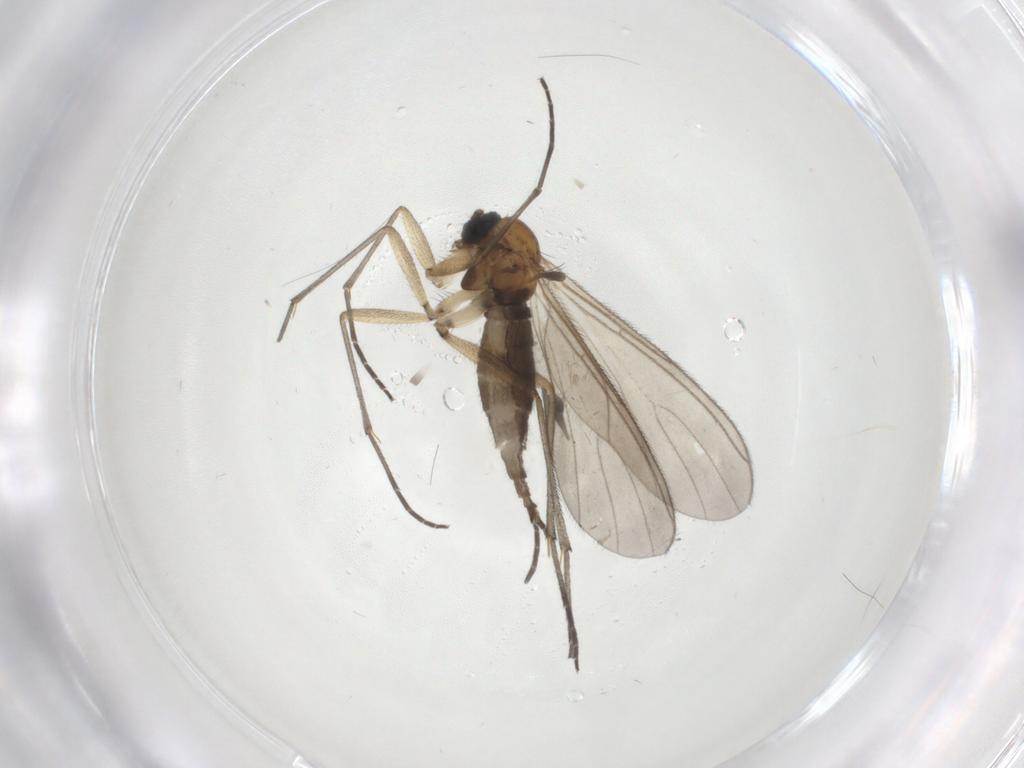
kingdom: Animalia
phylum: Arthropoda
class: Insecta
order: Diptera
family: Sciaridae
